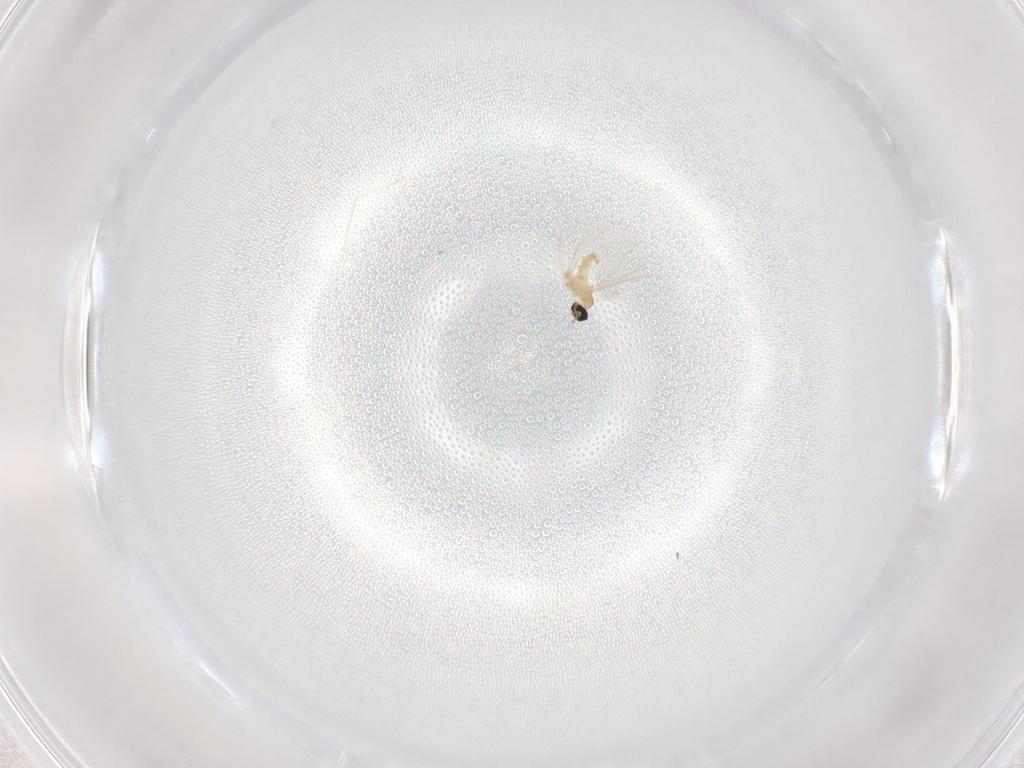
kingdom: Animalia
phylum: Arthropoda
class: Insecta
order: Diptera
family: Cecidomyiidae
